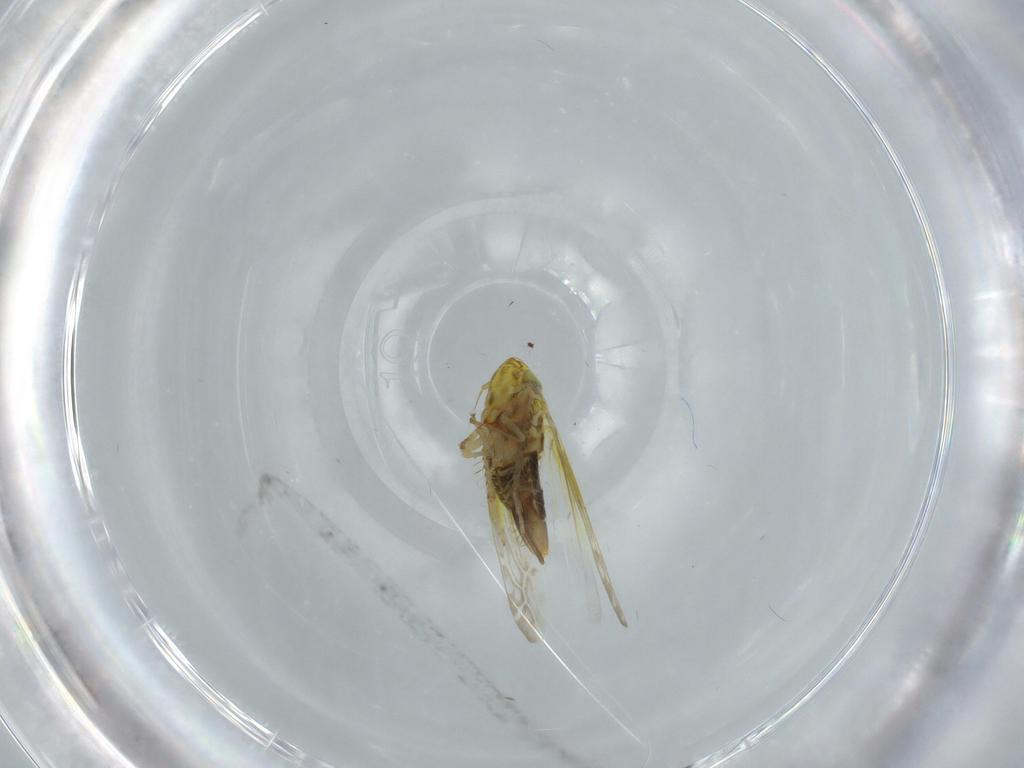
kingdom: Animalia
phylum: Arthropoda
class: Insecta
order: Hemiptera
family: Cicadellidae
